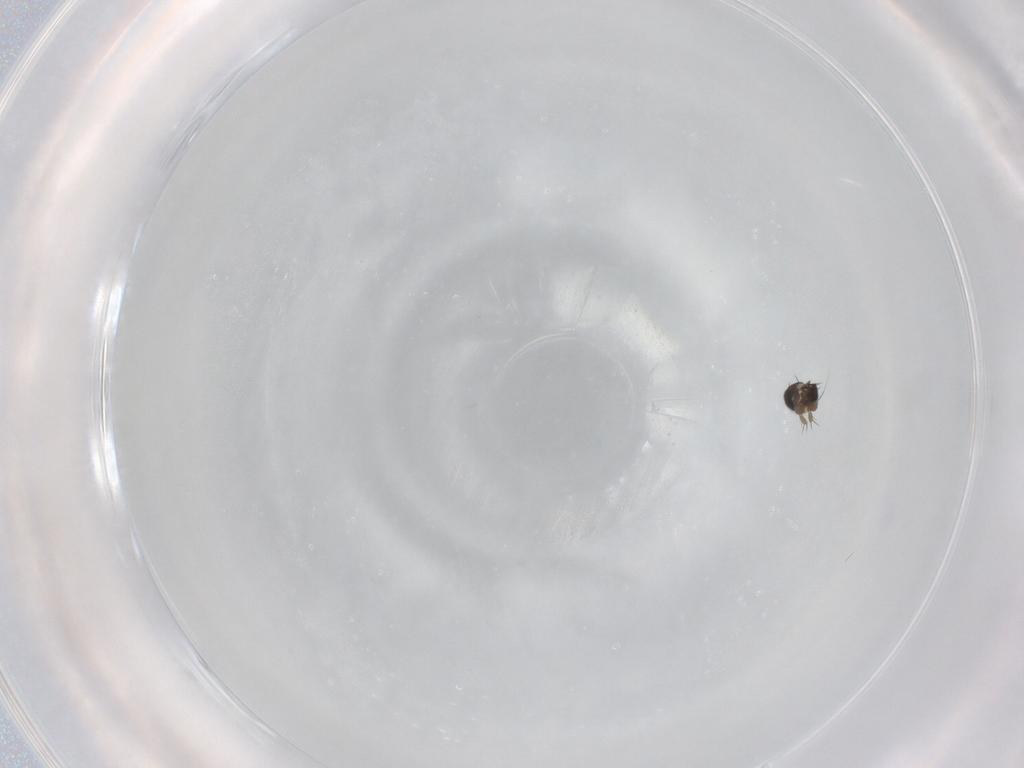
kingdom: Animalia
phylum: Arthropoda
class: Insecta
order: Diptera
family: Phoridae
